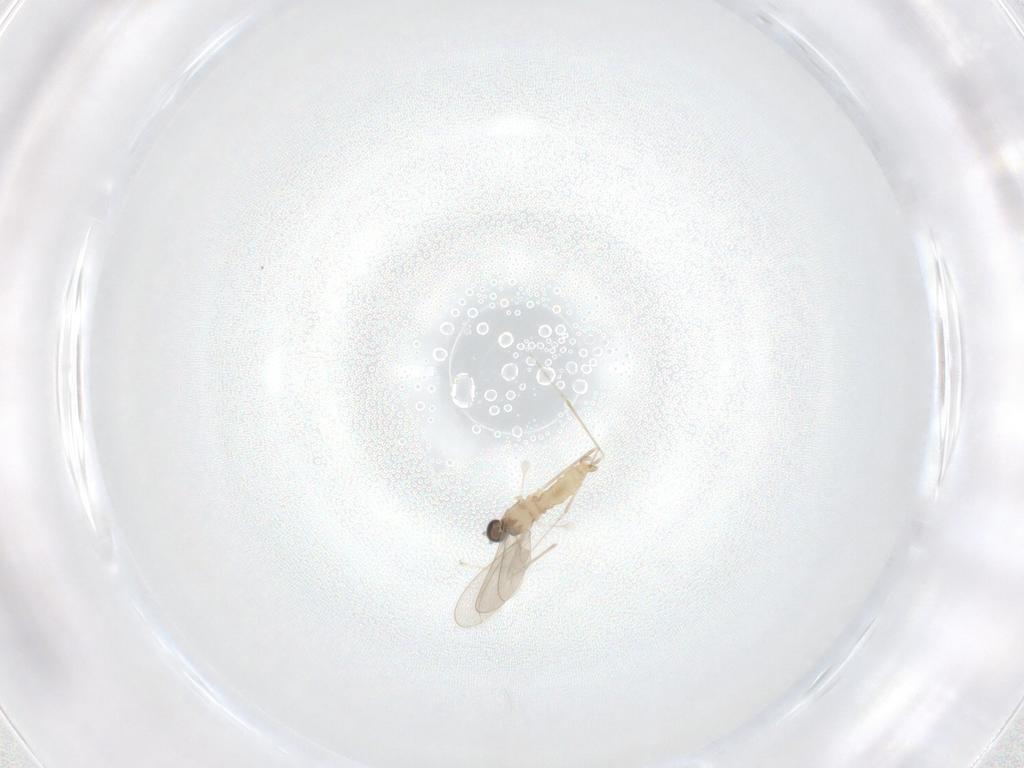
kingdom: Animalia
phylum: Arthropoda
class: Insecta
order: Diptera
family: Cecidomyiidae
